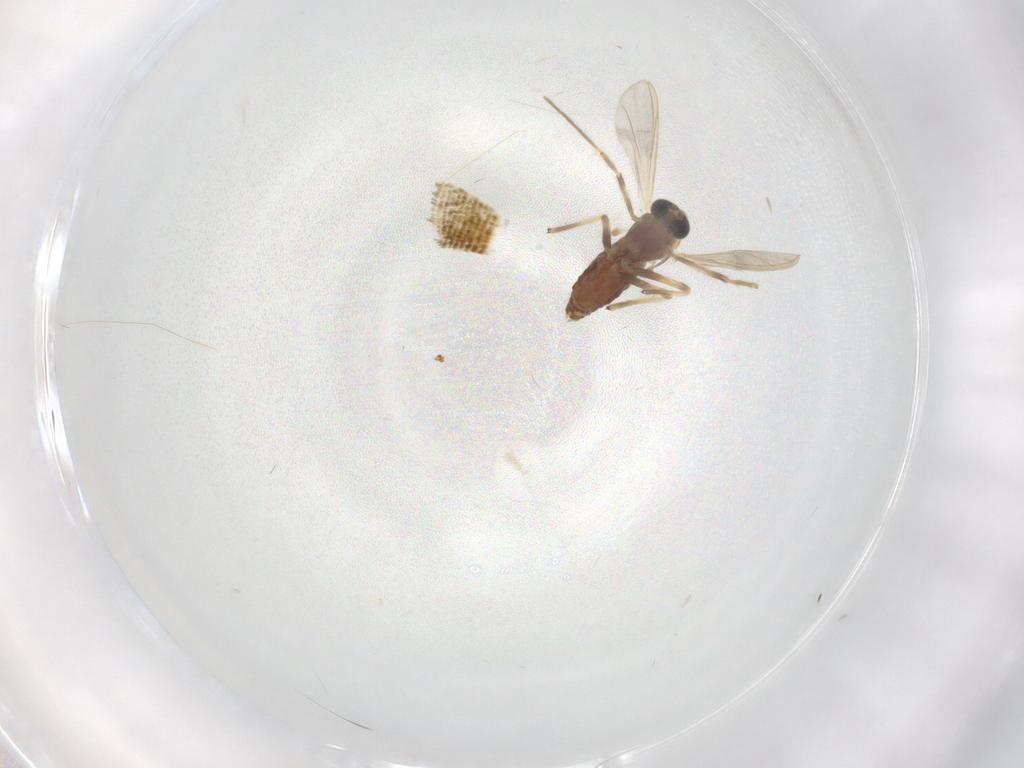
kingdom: Animalia
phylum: Arthropoda
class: Insecta
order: Diptera
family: Chironomidae
